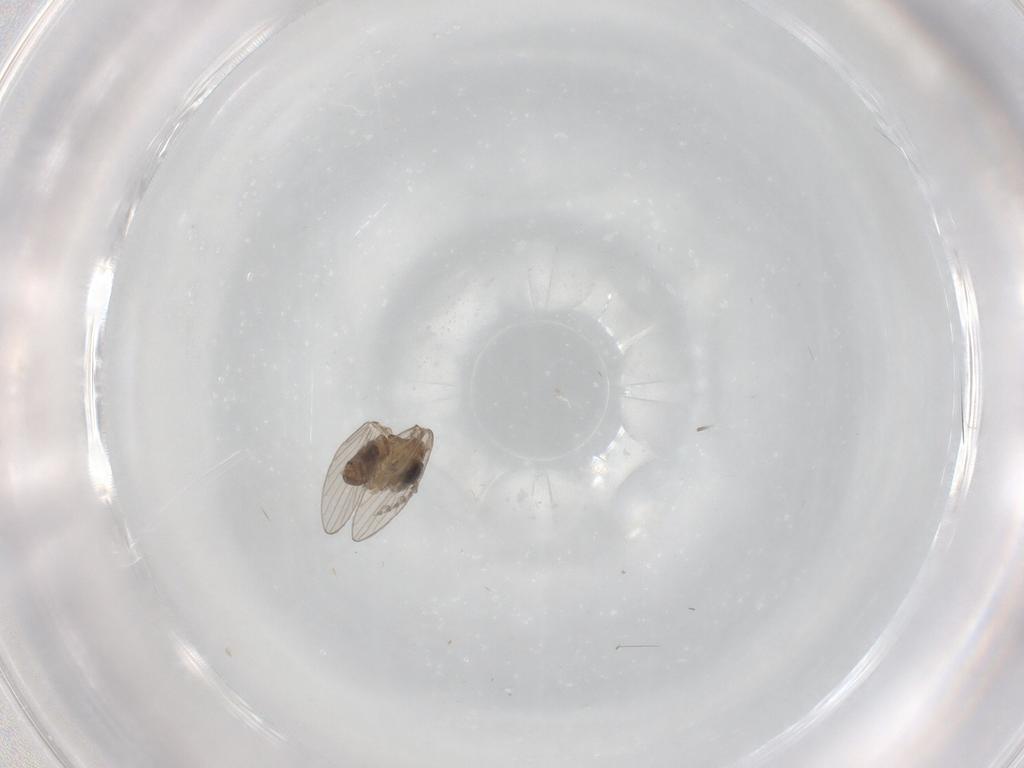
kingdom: Animalia
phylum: Arthropoda
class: Insecta
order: Diptera
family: Psychodidae
